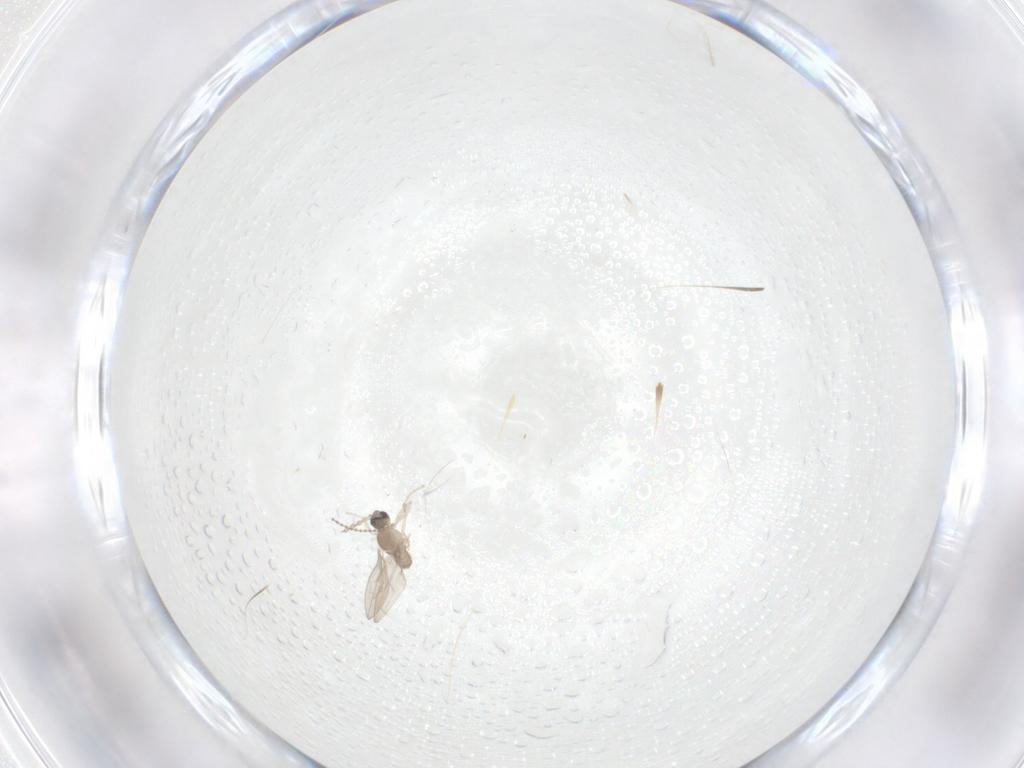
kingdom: Animalia
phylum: Arthropoda
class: Insecta
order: Diptera
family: Cecidomyiidae
